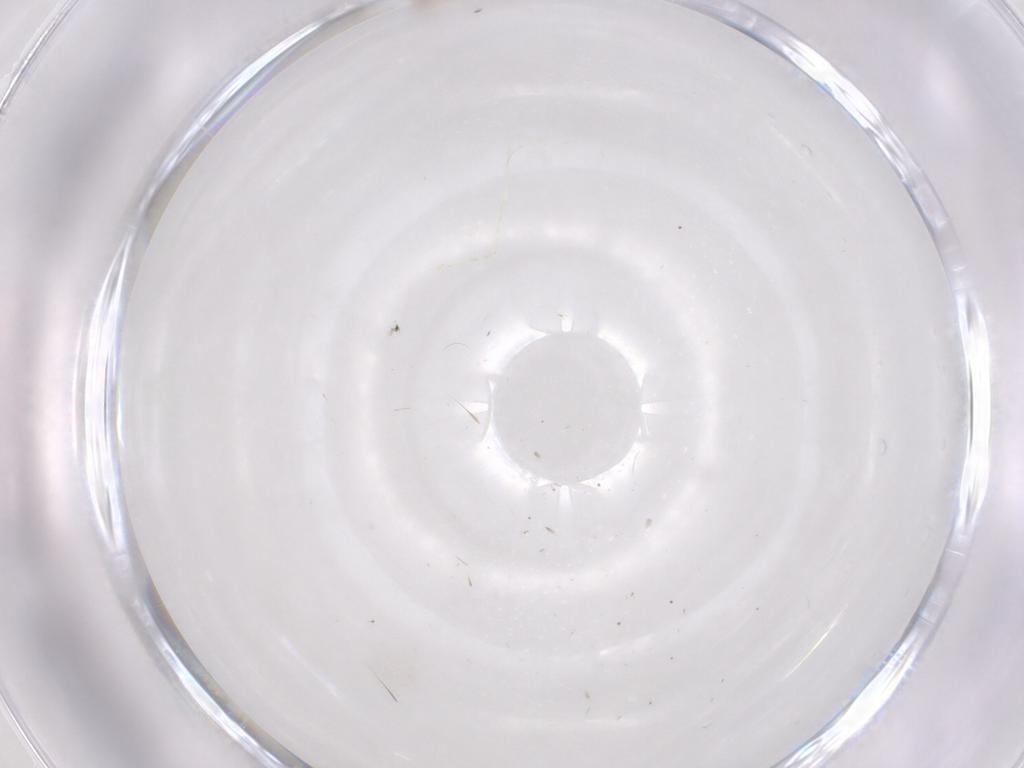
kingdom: Animalia
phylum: Arthropoda
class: Insecta
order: Diptera
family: Cecidomyiidae
